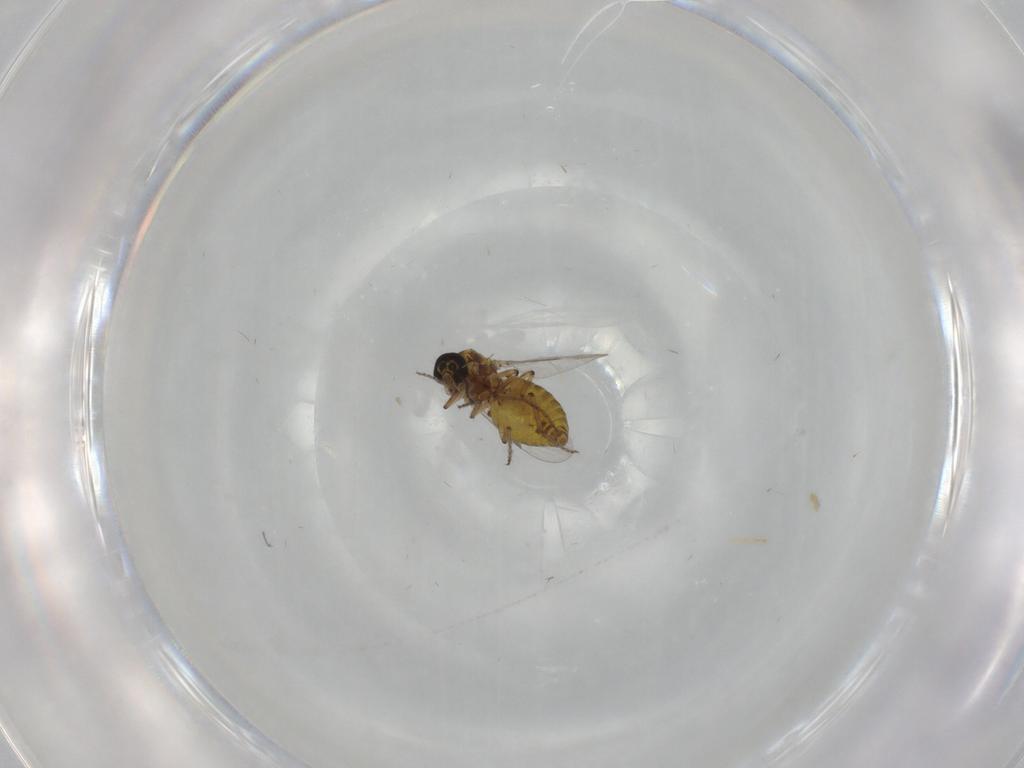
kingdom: Animalia
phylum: Arthropoda
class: Insecta
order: Diptera
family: Ceratopogonidae
